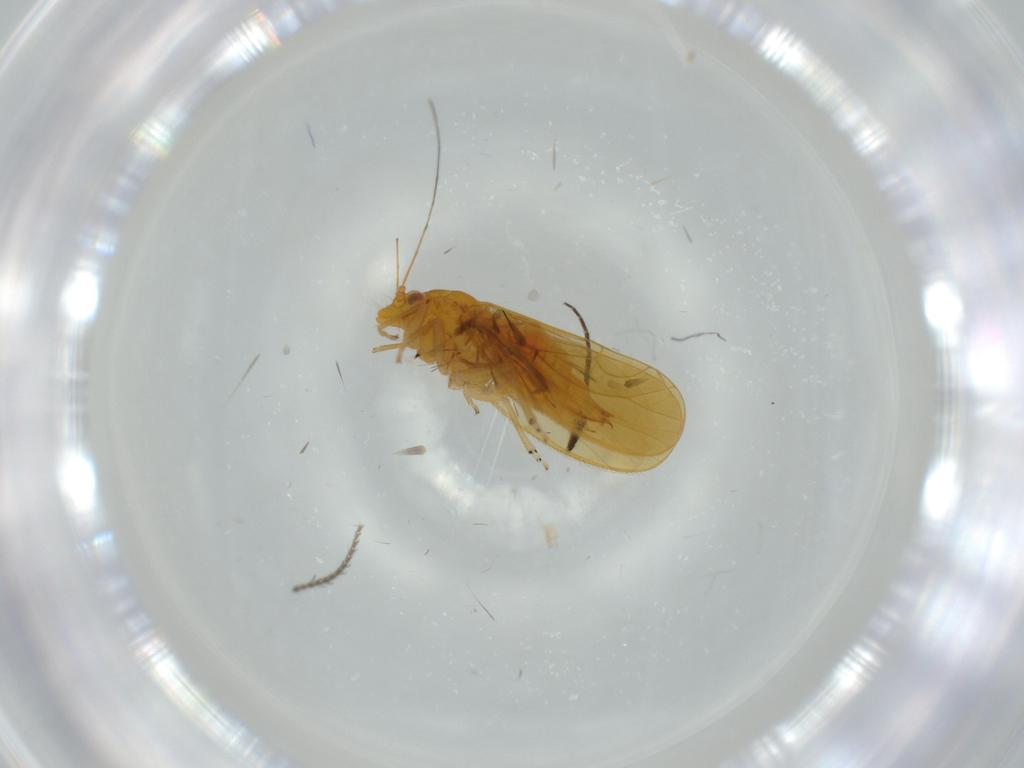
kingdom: Animalia
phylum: Arthropoda
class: Insecta
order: Hemiptera
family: Psyllidae
